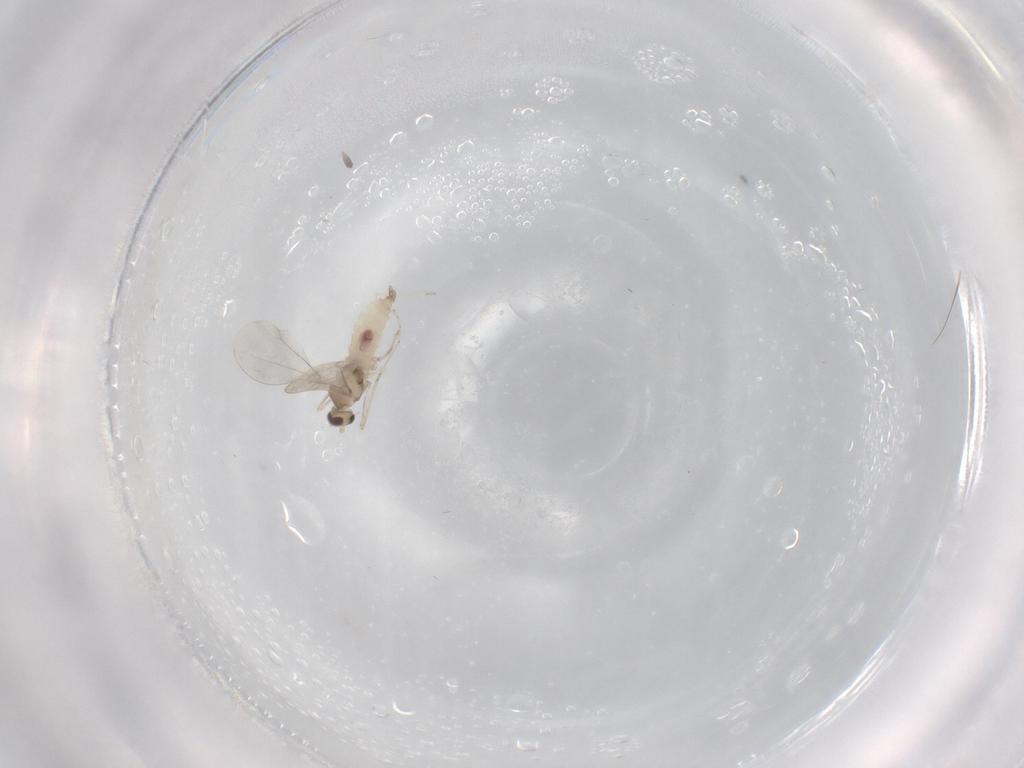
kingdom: Animalia
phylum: Arthropoda
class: Insecta
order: Diptera
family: Cecidomyiidae
